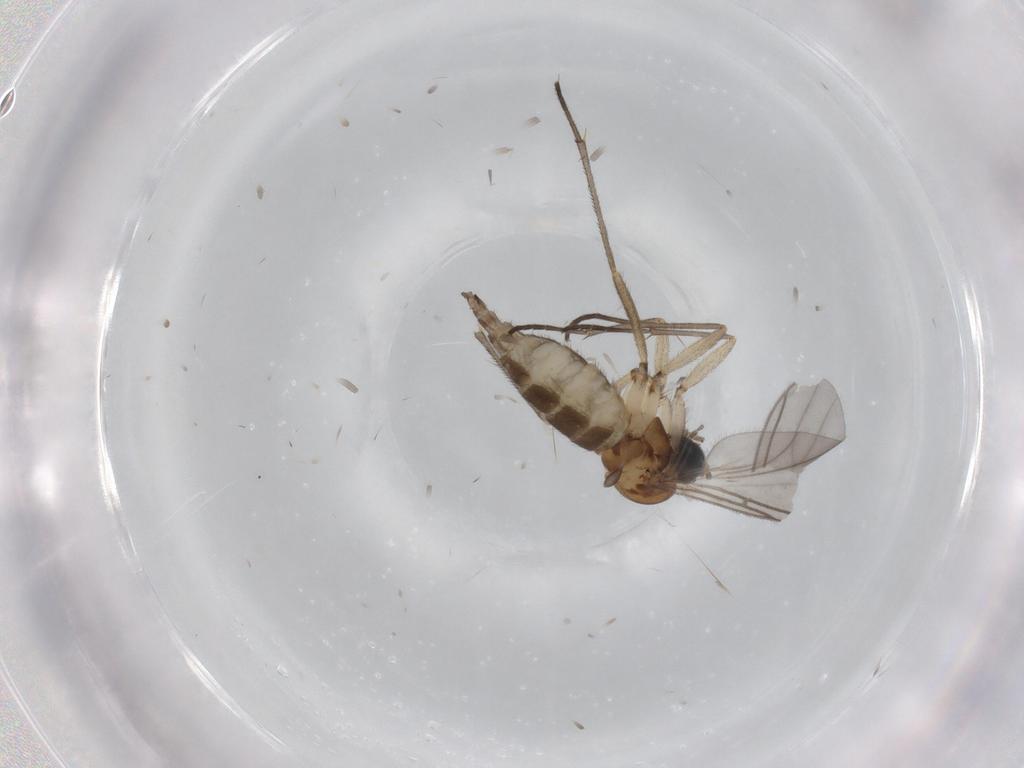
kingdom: Animalia
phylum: Arthropoda
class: Insecta
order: Diptera
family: Sciaridae
